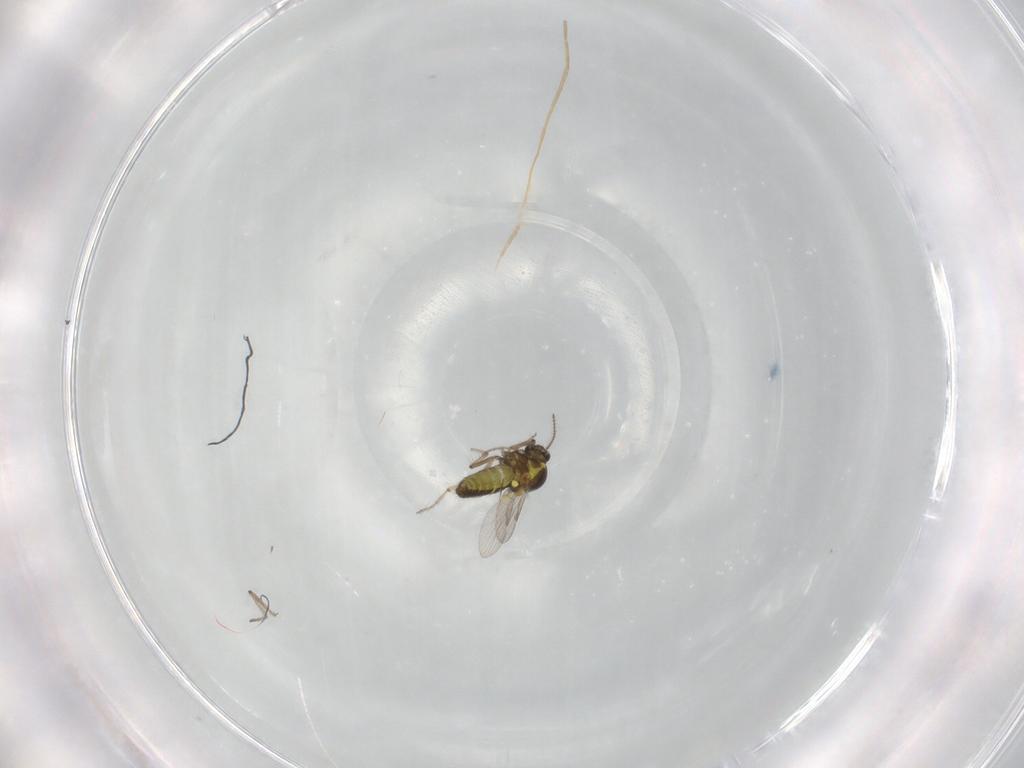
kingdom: Animalia
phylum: Arthropoda
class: Insecta
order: Diptera
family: Ceratopogonidae
